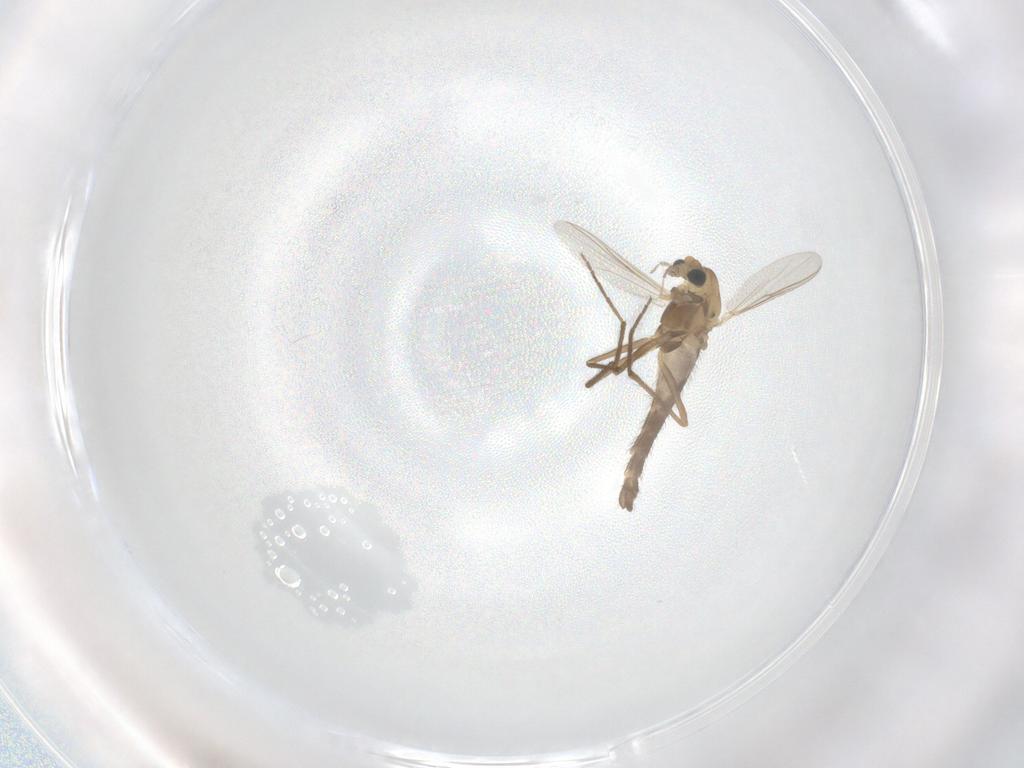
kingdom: Animalia
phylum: Arthropoda
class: Insecta
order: Diptera
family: Chironomidae
